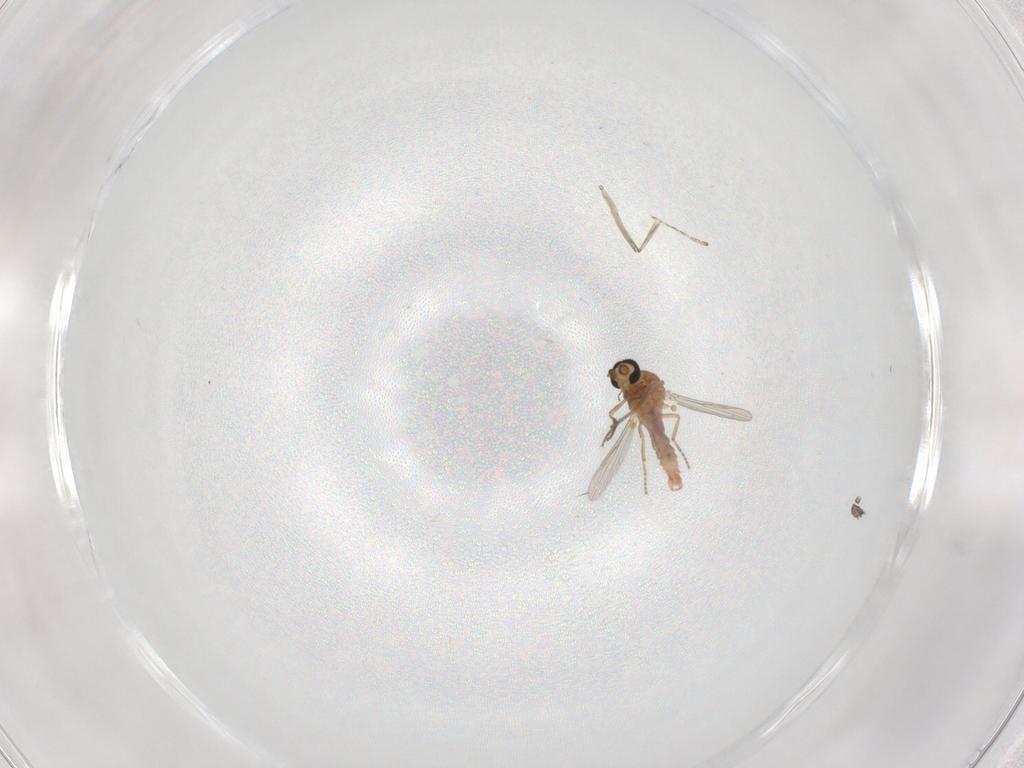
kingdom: Animalia
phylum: Arthropoda
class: Insecta
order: Diptera
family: Ceratopogonidae
